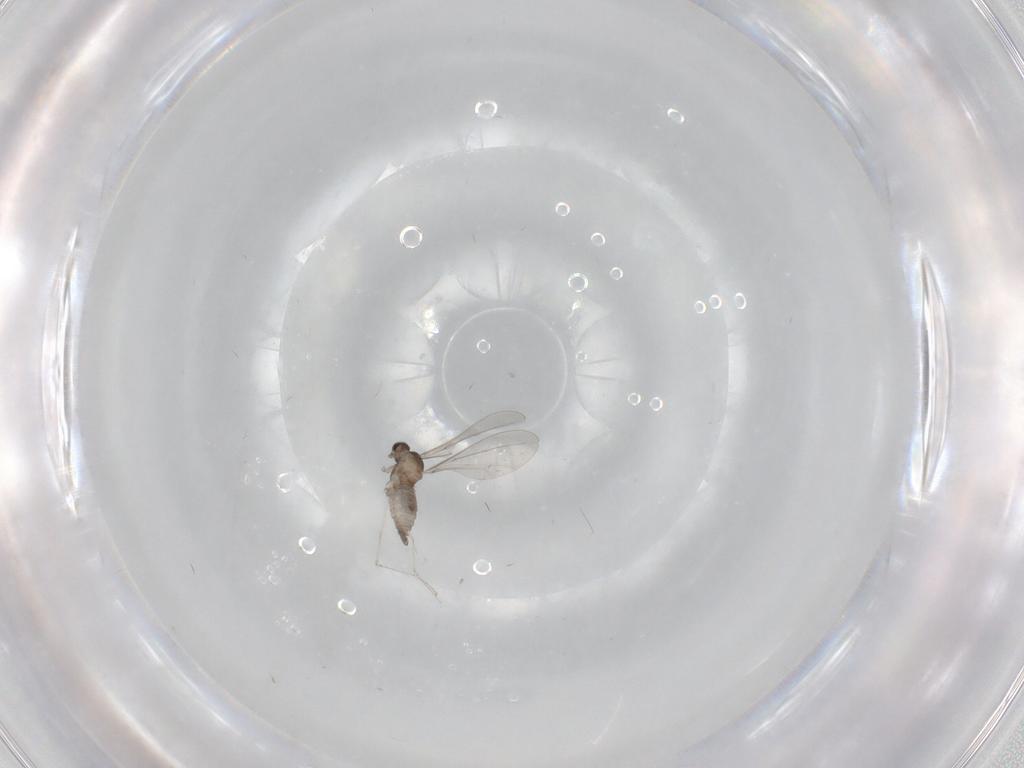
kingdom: Animalia
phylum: Arthropoda
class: Insecta
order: Diptera
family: Cecidomyiidae
